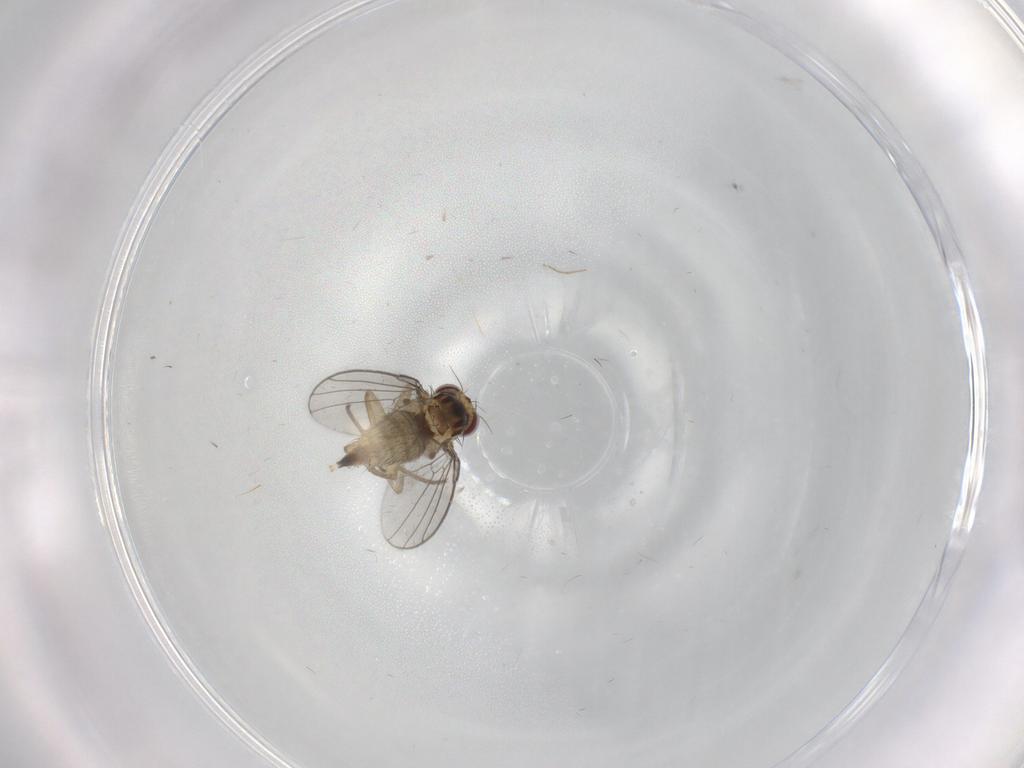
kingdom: Animalia
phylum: Arthropoda
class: Insecta
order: Diptera
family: Agromyzidae
